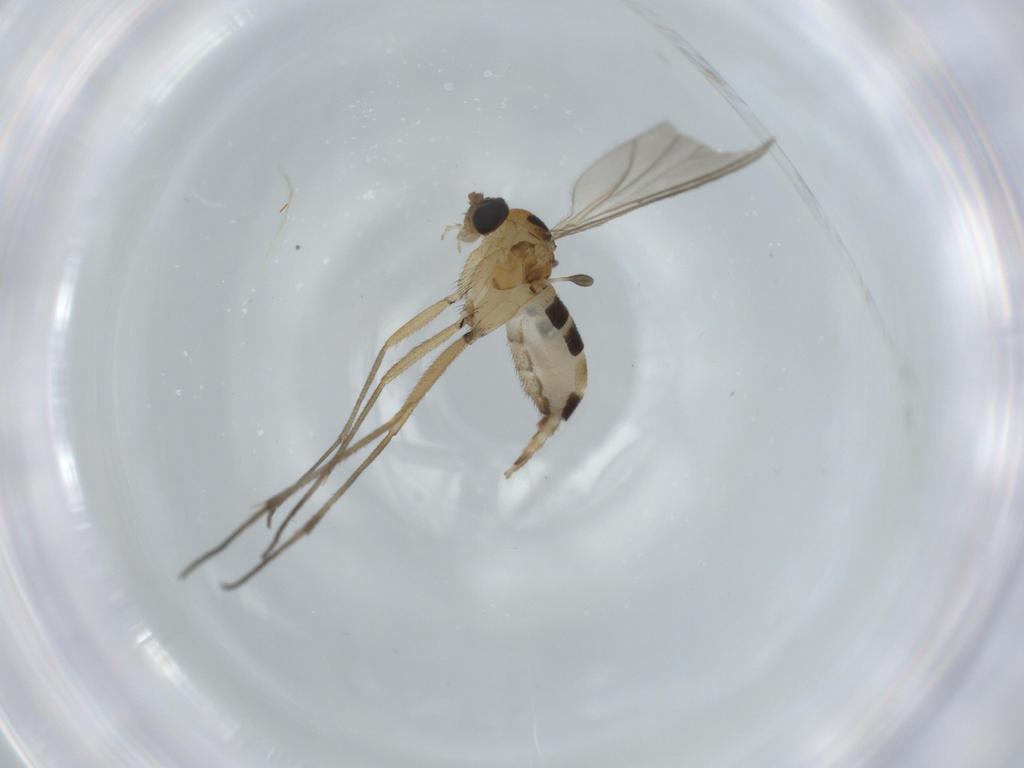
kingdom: Animalia
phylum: Arthropoda
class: Insecta
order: Diptera
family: Sciaridae
